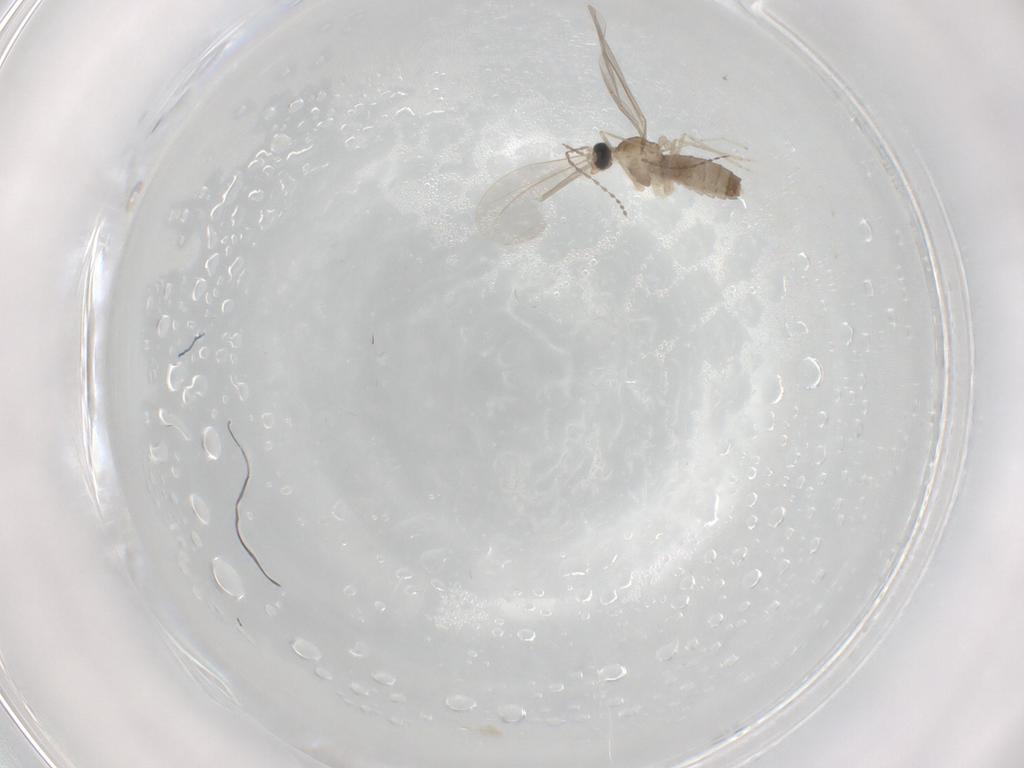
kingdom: Animalia
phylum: Arthropoda
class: Insecta
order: Diptera
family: Cecidomyiidae
